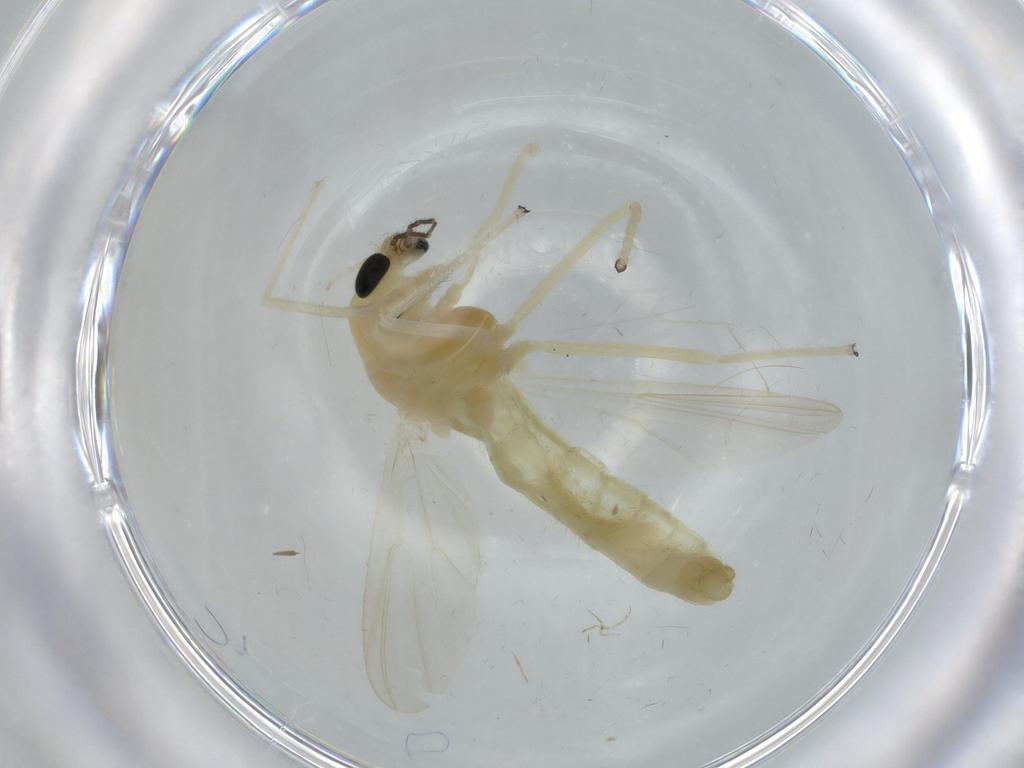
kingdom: Animalia
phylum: Arthropoda
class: Insecta
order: Diptera
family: Chironomidae
